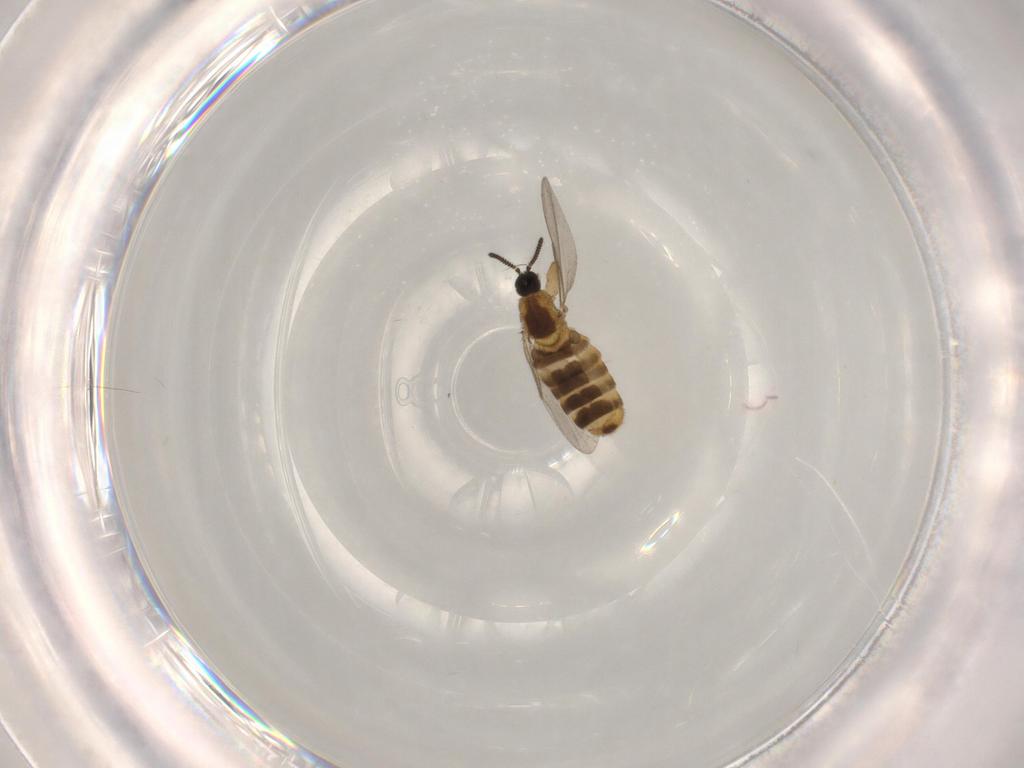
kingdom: Animalia
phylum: Arthropoda
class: Insecta
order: Diptera
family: Scatopsidae
